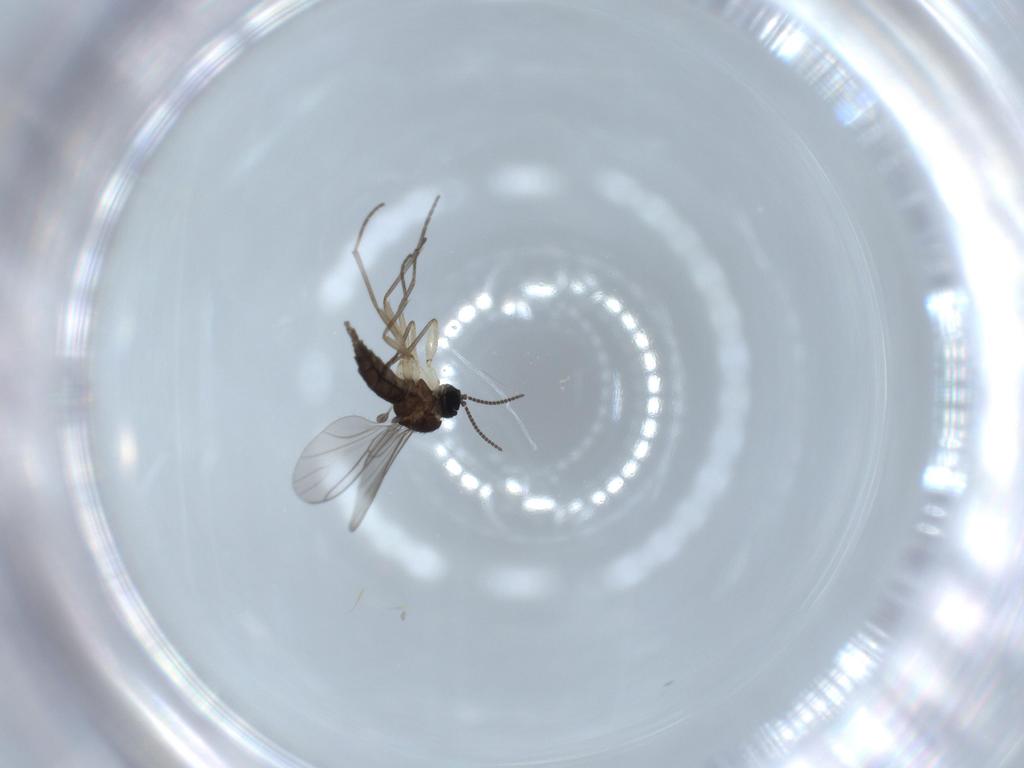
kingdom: Animalia
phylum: Arthropoda
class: Insecta
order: Diptera
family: Sciaridae
